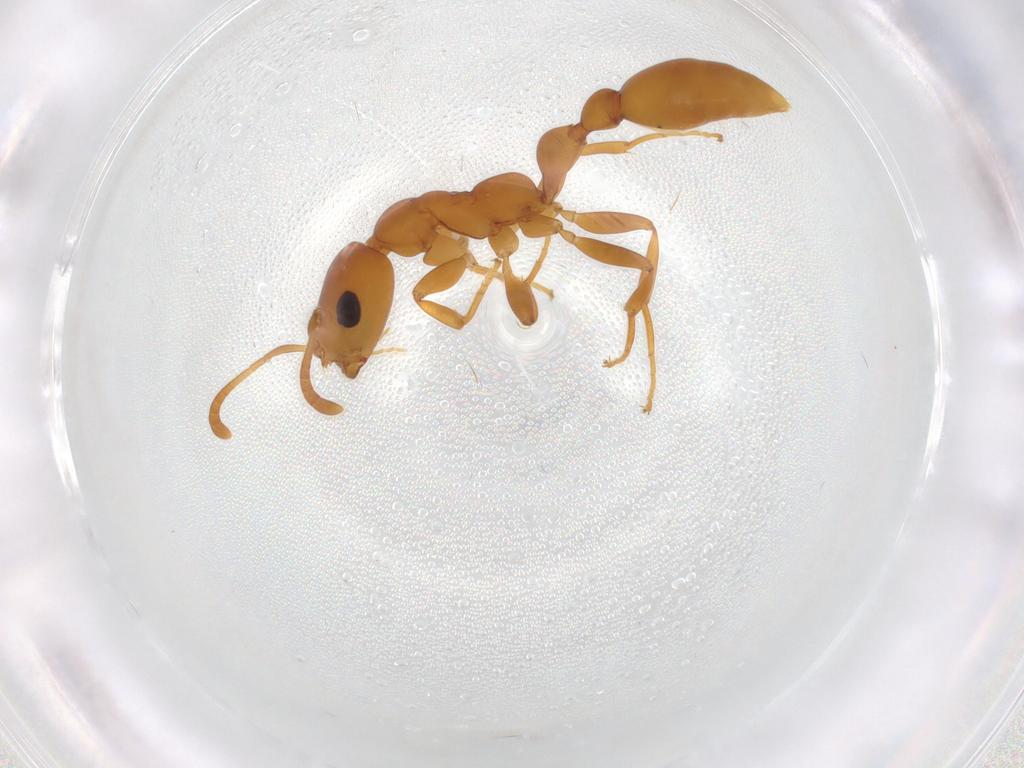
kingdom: Animalia
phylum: Arthropoda
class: Insecta
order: Hymenoptera
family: Formicidae
